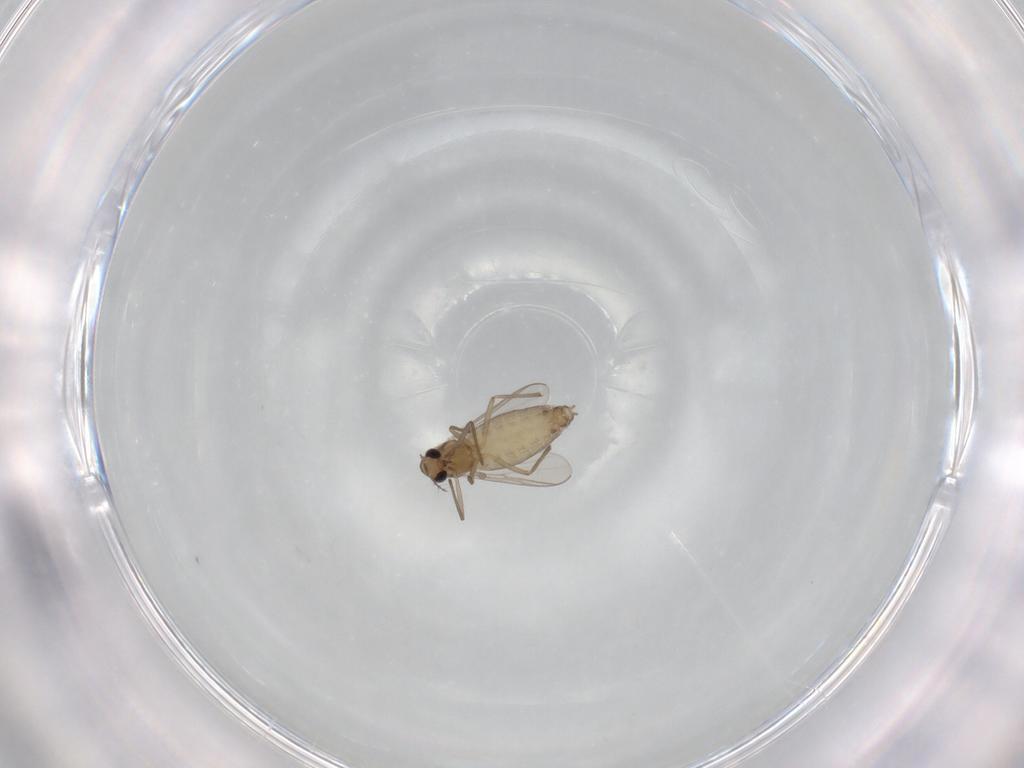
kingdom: Animalia
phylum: Arthropoda
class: Insecta
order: Diptera
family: Chironomidae
